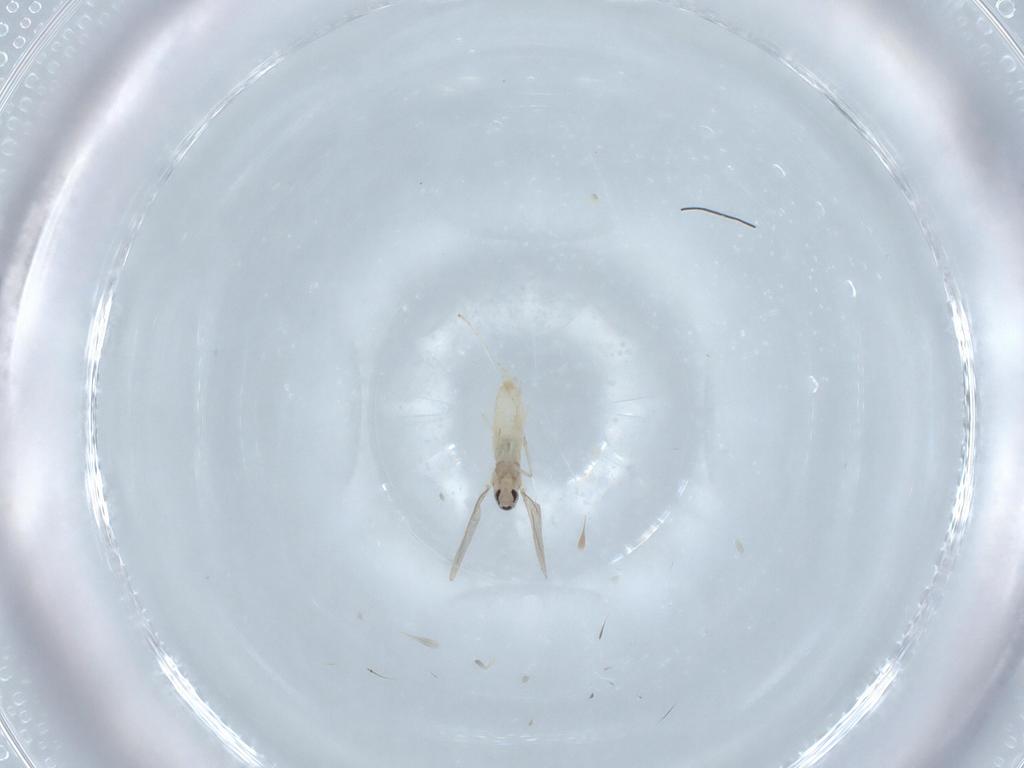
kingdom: Animalia
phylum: Arthropoda
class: Insecta
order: Diptera
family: Cecidomyiidae
